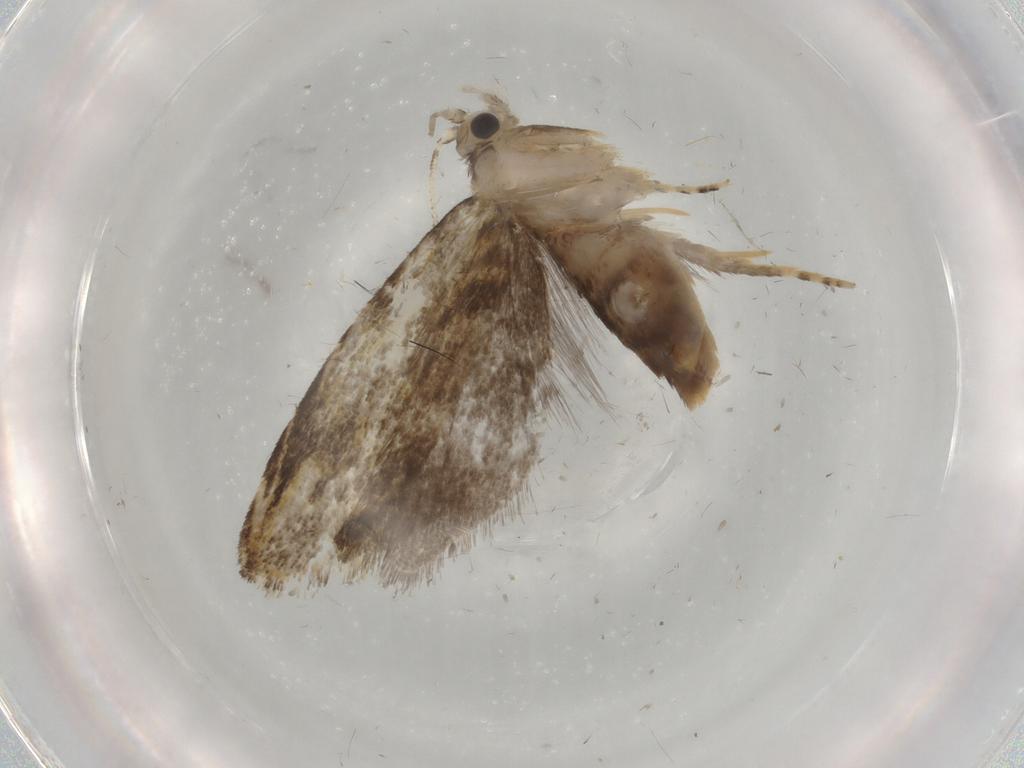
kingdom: Animalia
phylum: Arthropoda
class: Insecta
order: Lepidoptera
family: Tineidae
